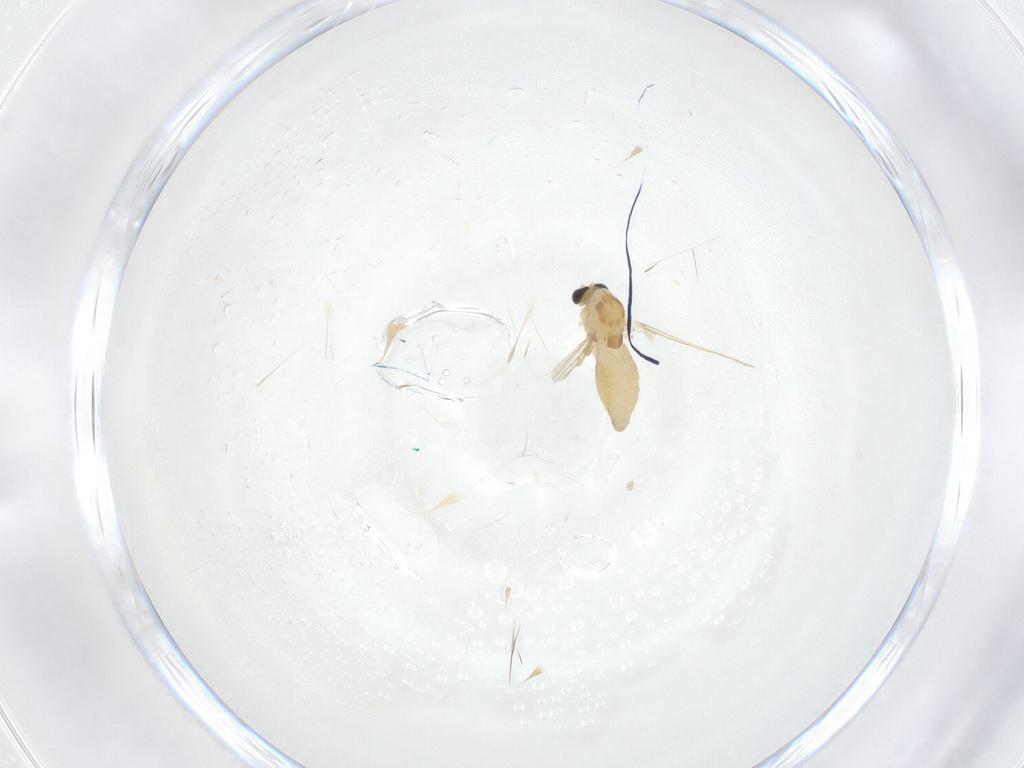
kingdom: Animalia
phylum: Arthropoda
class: Insecta
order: Diptera
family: Chironomidae
